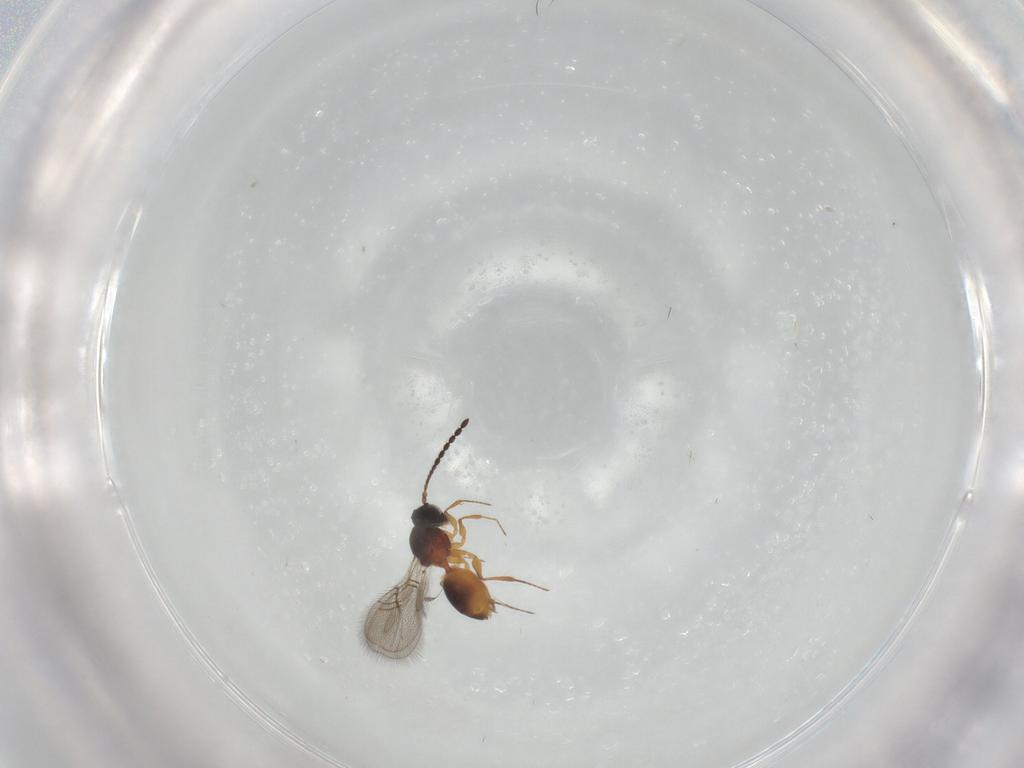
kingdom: Animalia
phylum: Arthropoda
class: Insecta
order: Hymenoptera
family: Figitidae
